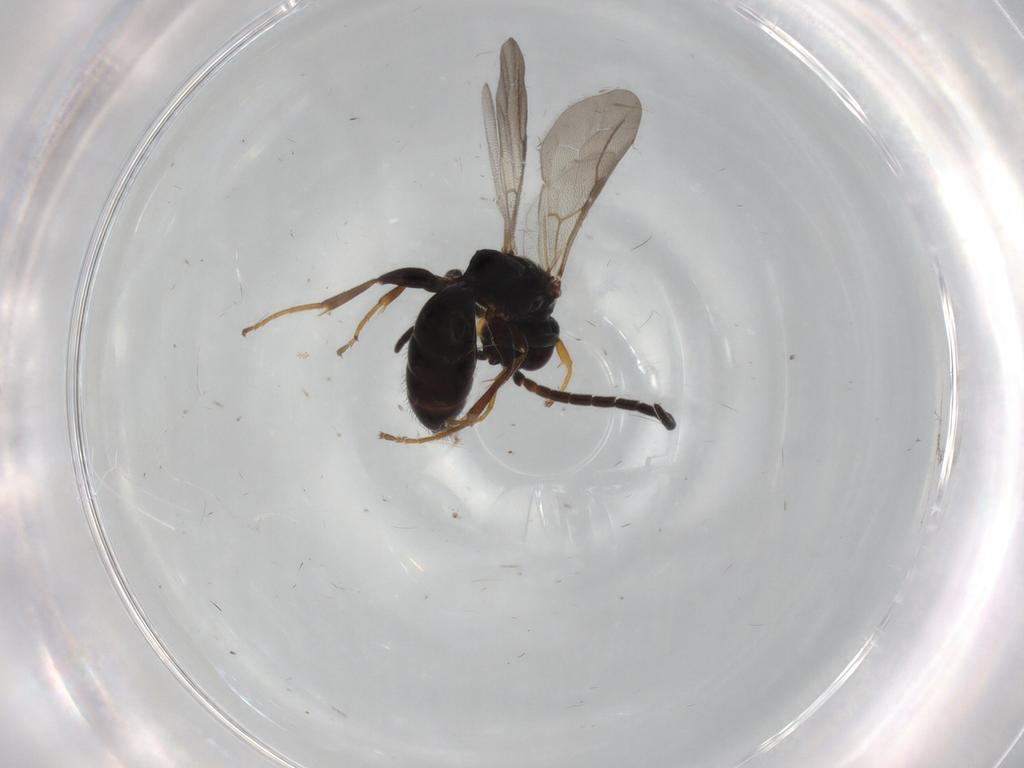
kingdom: Animalia
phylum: Arthropoda
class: Insecta
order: Hymenoptera
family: Bethylidae
